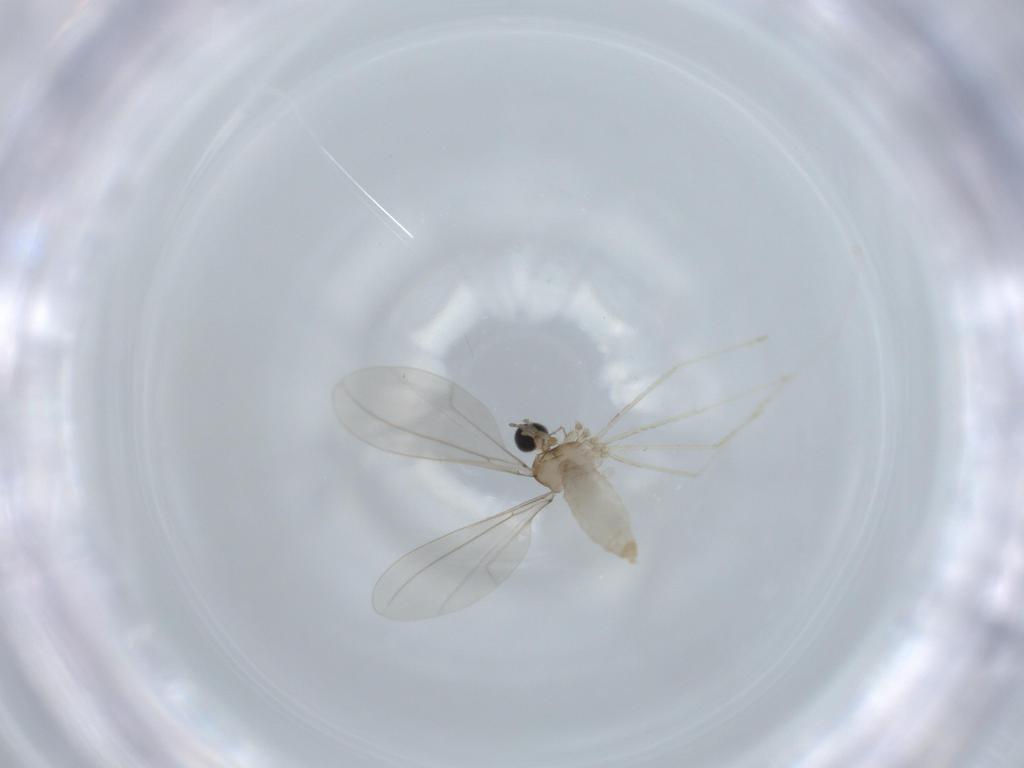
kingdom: Animalia
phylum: Arthropoda
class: Insecta
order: Diptera
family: Cecidomyiidae
